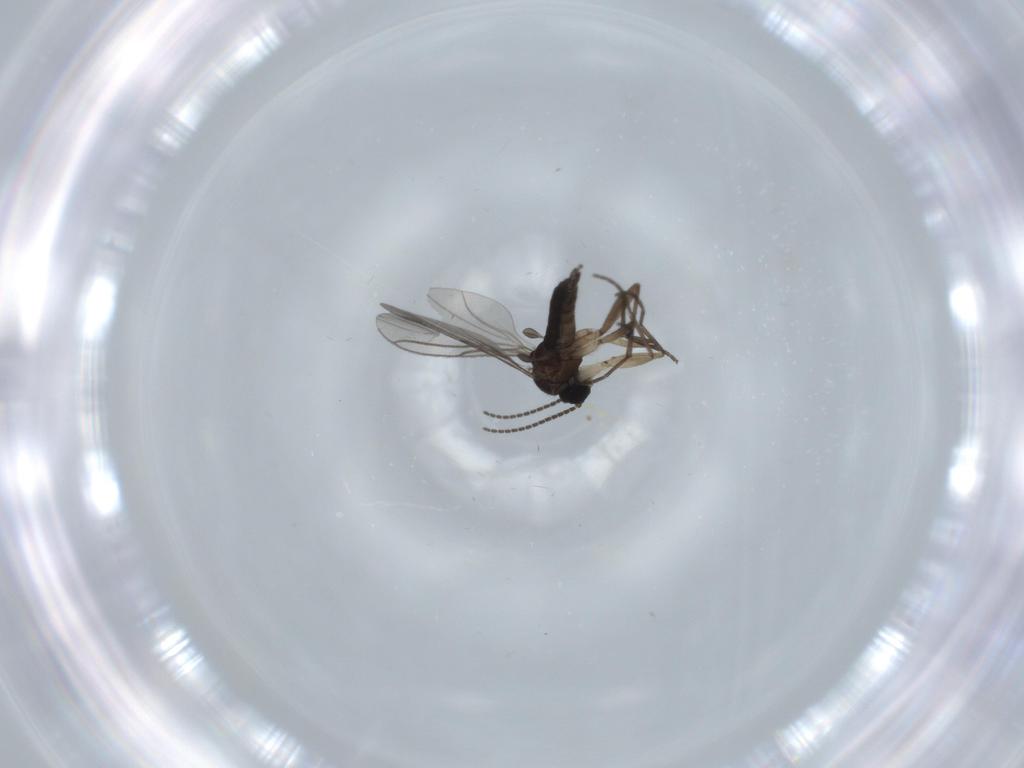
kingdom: Animalia
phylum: Arthropoda
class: Insecta
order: Diptera
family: Sciaridae
